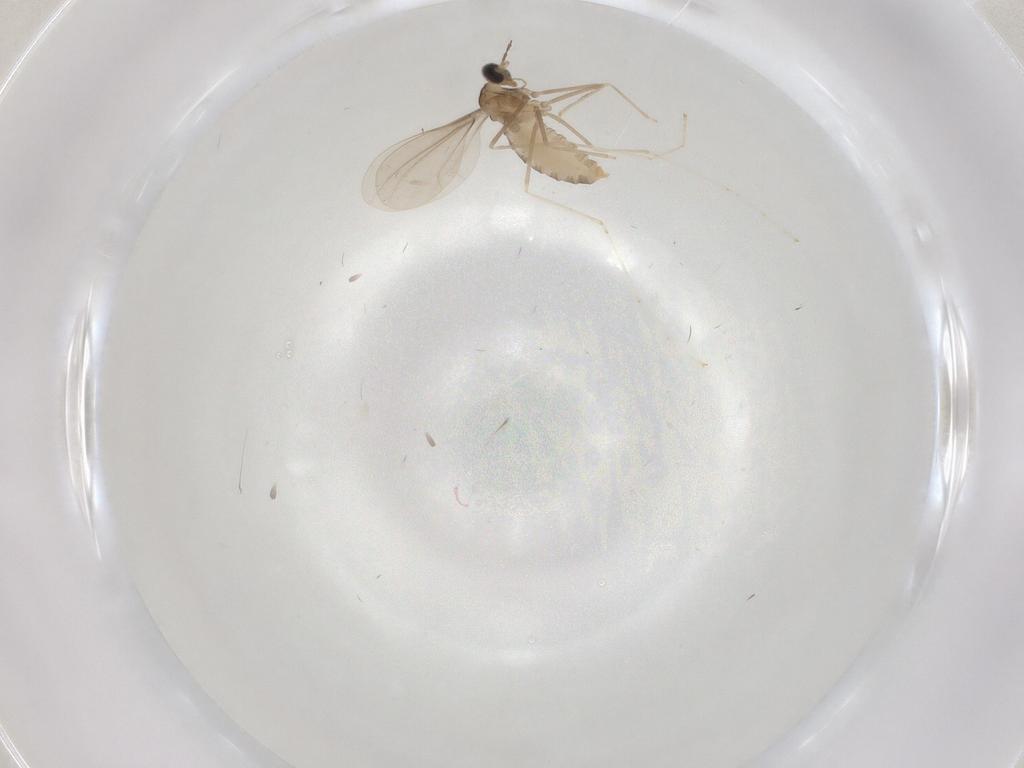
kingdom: Animalia
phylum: Arthropoda
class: Insecta
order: Diptera
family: Cecidomyiidae
